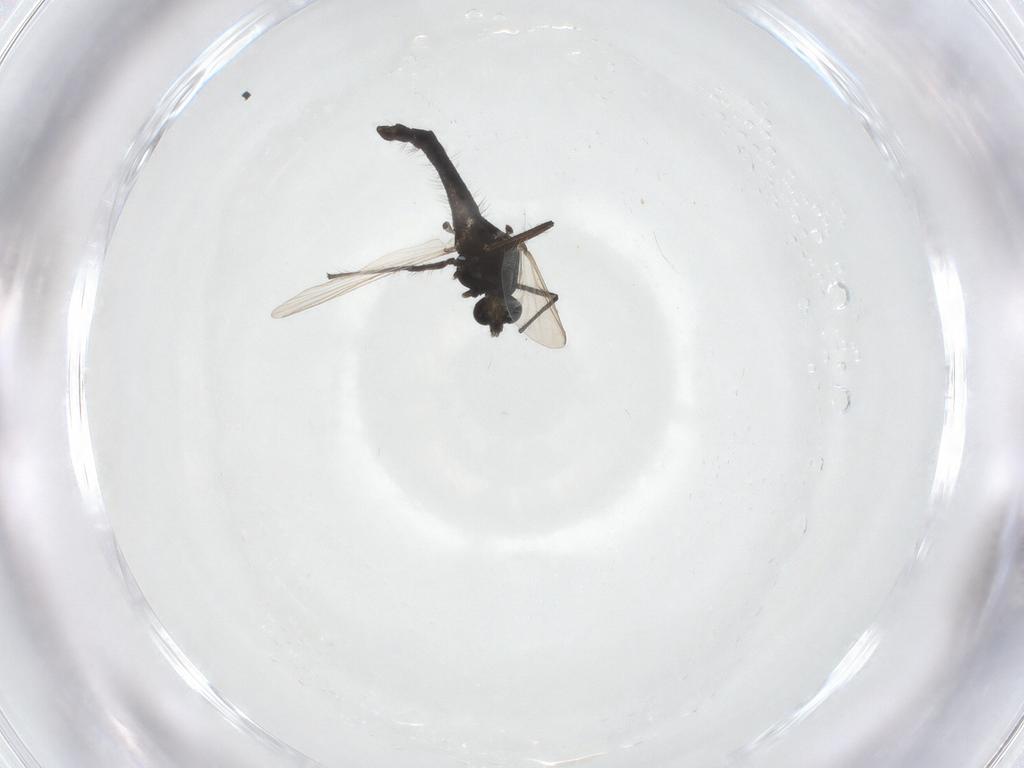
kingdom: Animalia
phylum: Arthropoda
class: Insecta
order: Diptera
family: Chironomidae
